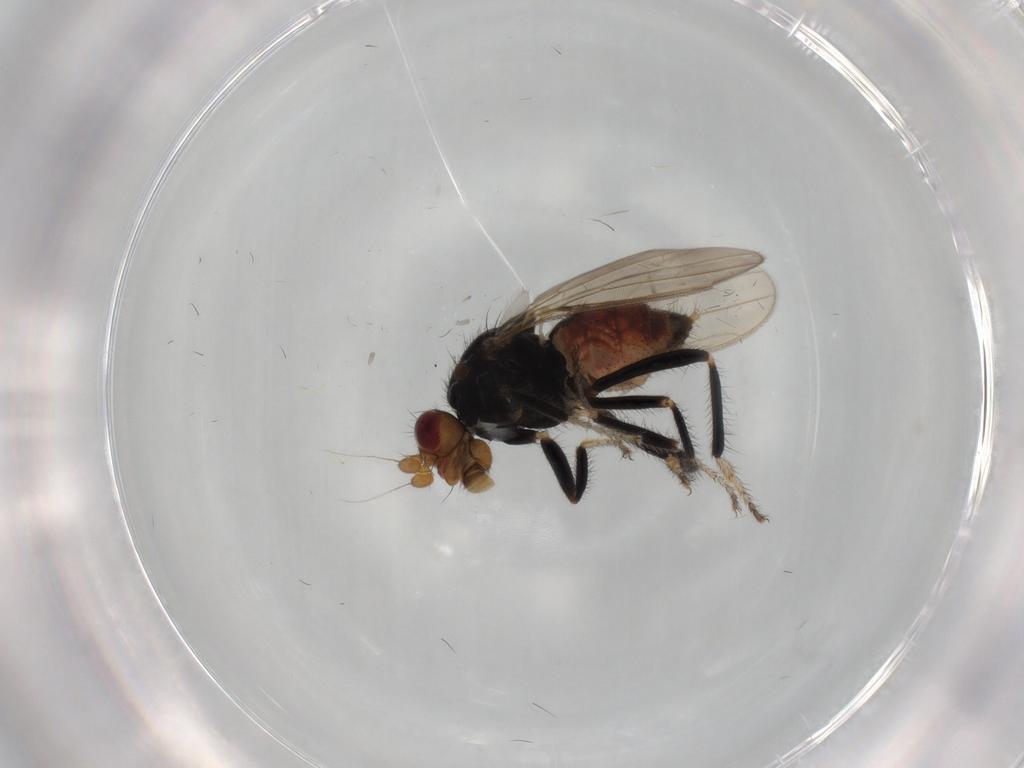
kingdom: Animalia
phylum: Arthropoda
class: Insecta
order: Diptera
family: Sphaeroceridae
